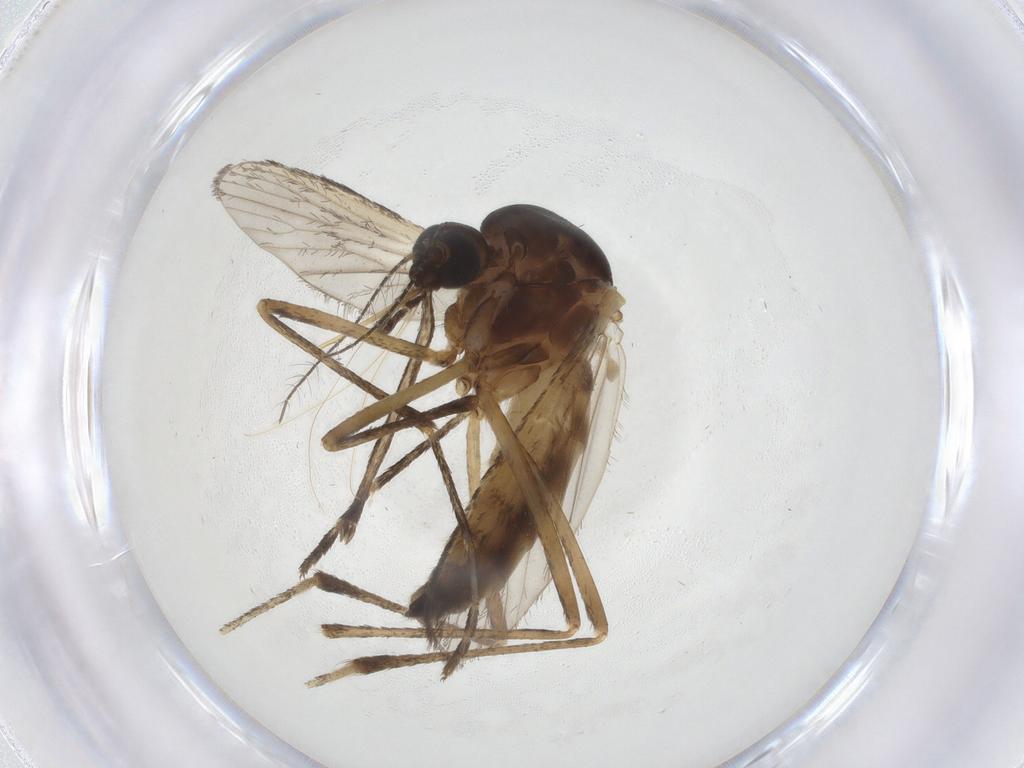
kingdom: Animalia
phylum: Arthropoda
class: Insecta
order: Diptera
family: Ephydridae
